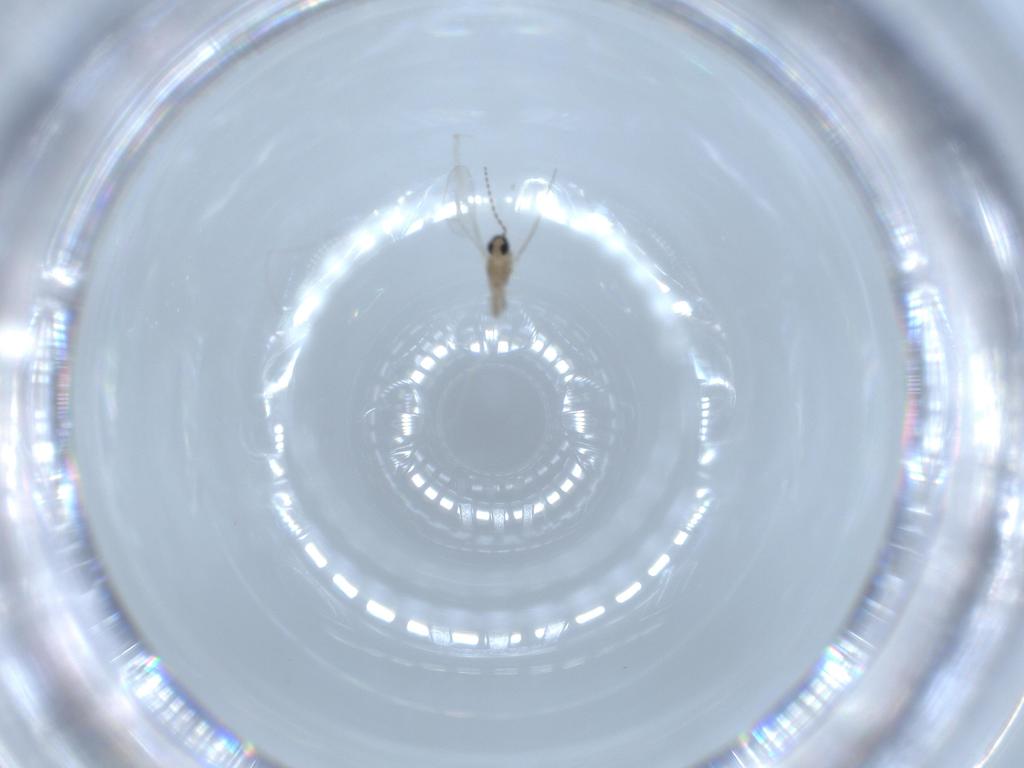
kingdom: Animalia
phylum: Arthropoda
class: Insecta
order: Diptera
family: Cecidomyiidae
